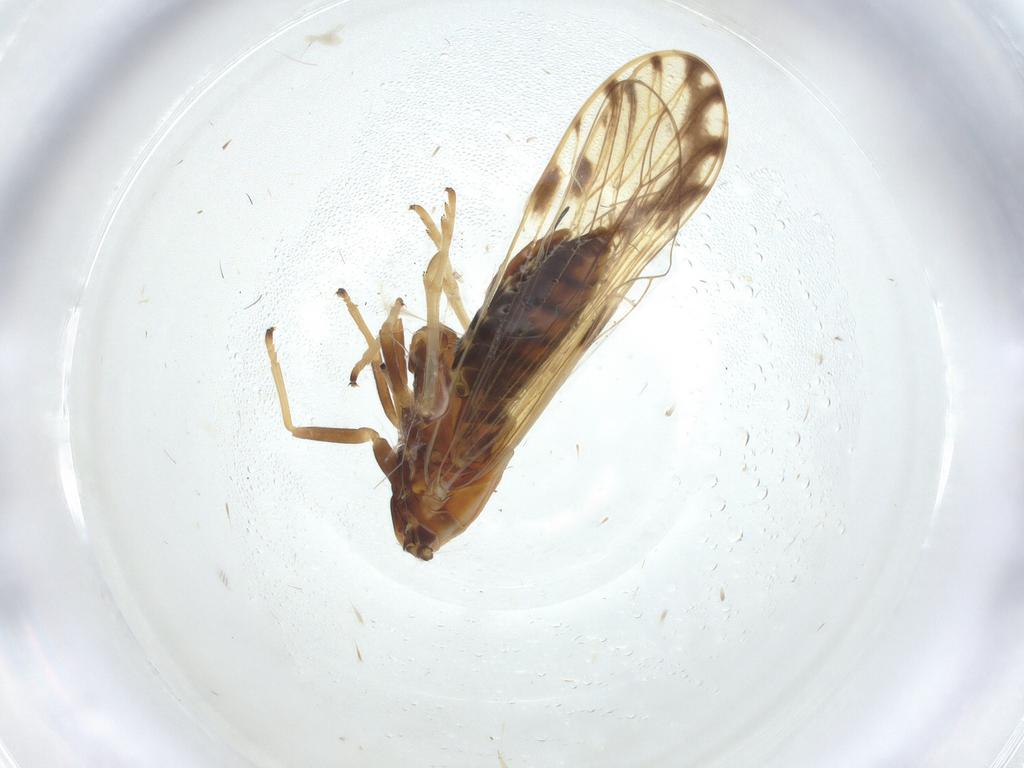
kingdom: Animalia
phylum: Arthropoda
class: Insecta
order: Hemiptera
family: Delphacidae
